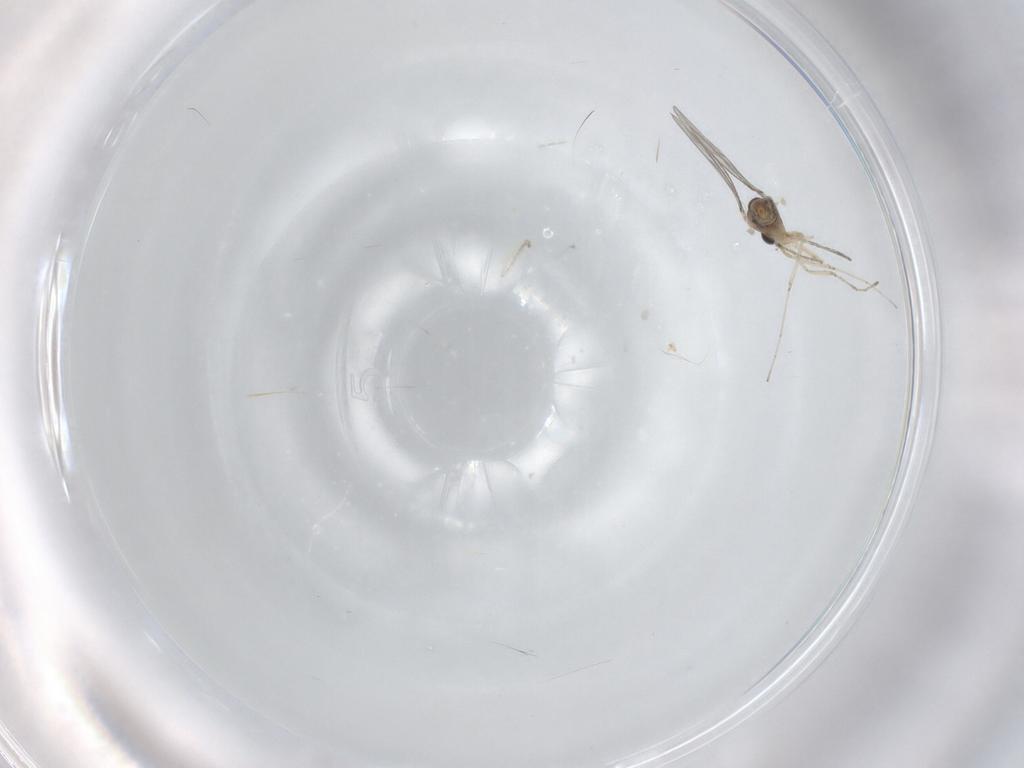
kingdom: Animalia
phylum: Arthropoda
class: Insecta
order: Diptera
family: Cecidomyiidae
